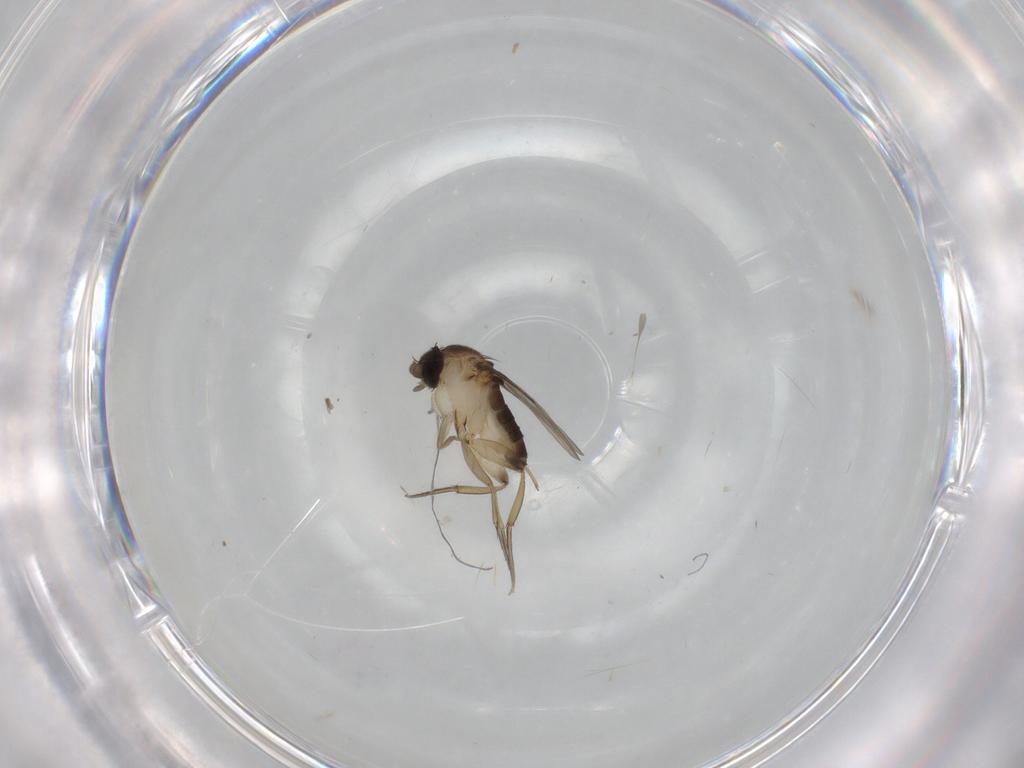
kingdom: Animalia
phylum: Arthropoda
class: Insecta
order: Diptera
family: Phoridae
